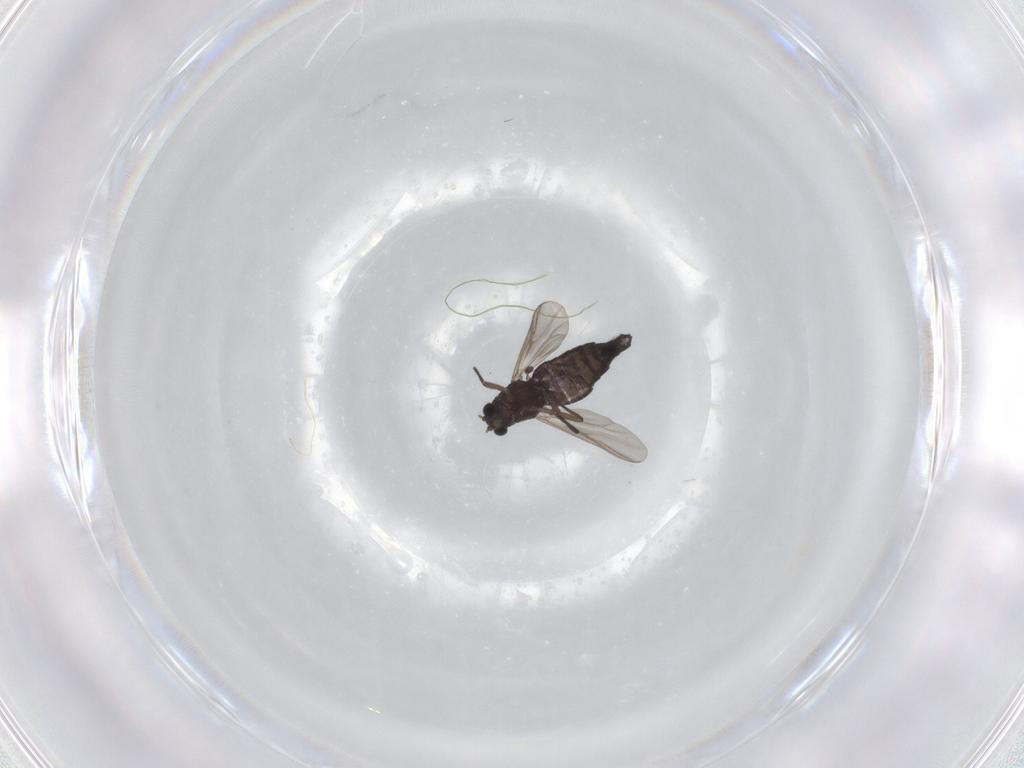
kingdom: Animalia
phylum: Arthropoda
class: Insecta
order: Diptera
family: Chironomidae
